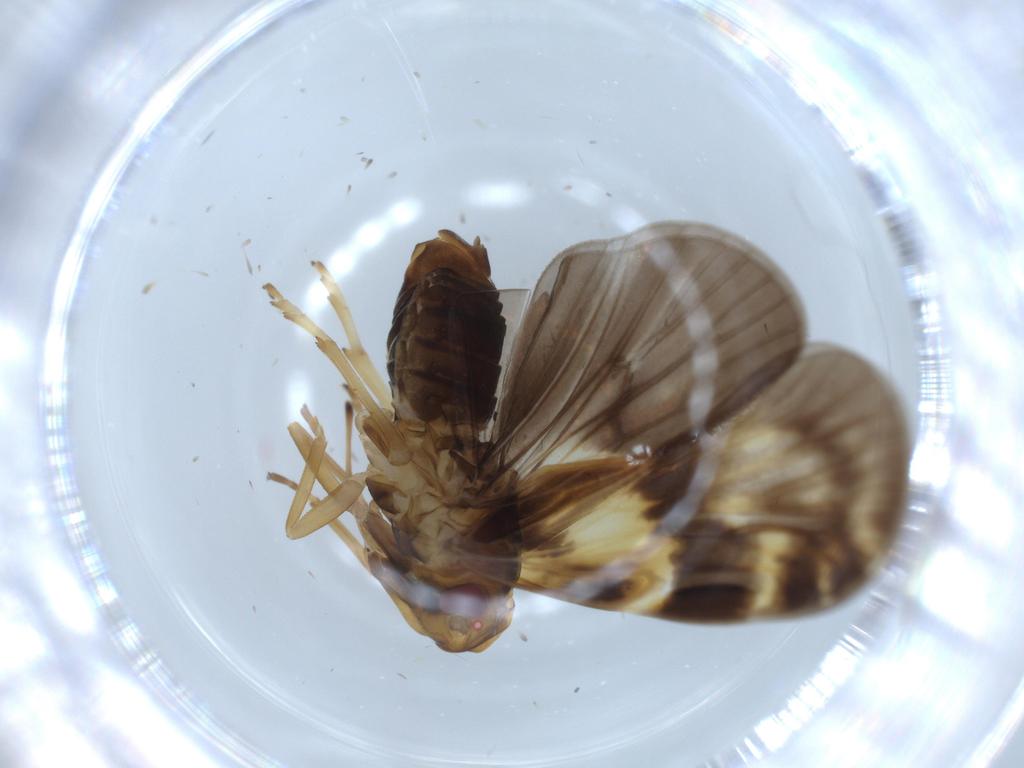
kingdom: Animalia
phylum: Arthropoda
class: Insecta
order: Hemiptera
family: Cixiidae
